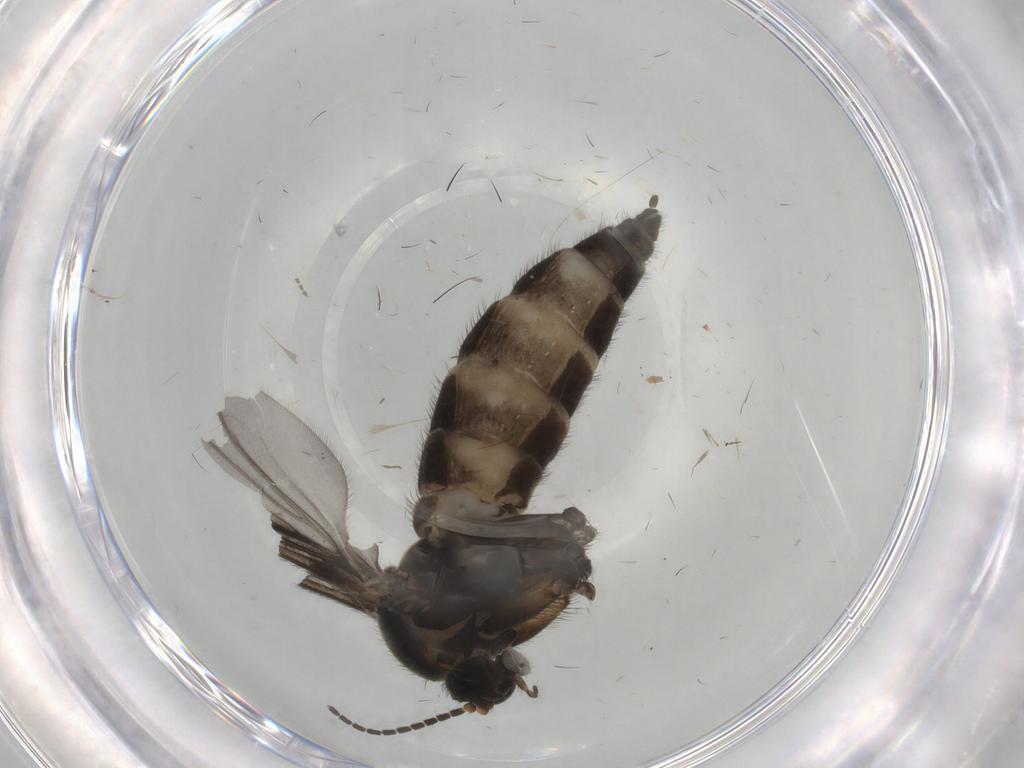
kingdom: Animalia
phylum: Arthropoda
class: Insecta
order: Diptera
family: Sciaridae
